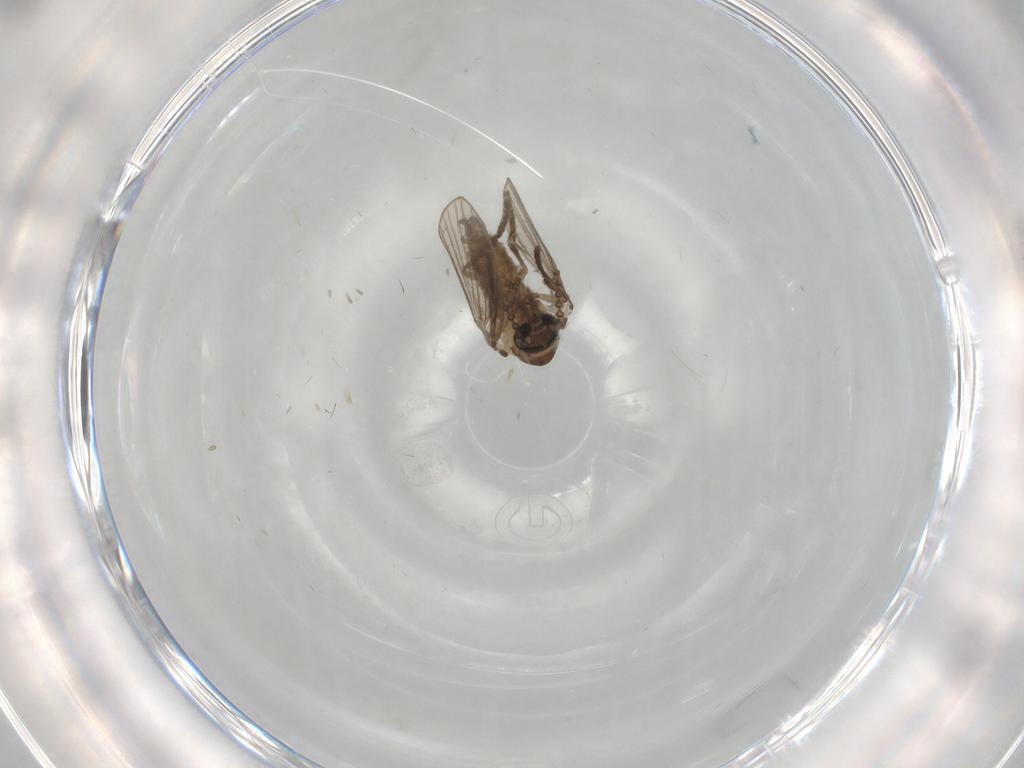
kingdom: Animalia
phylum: Arthropoda
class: Insecta
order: Diptera
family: Psychodidae
